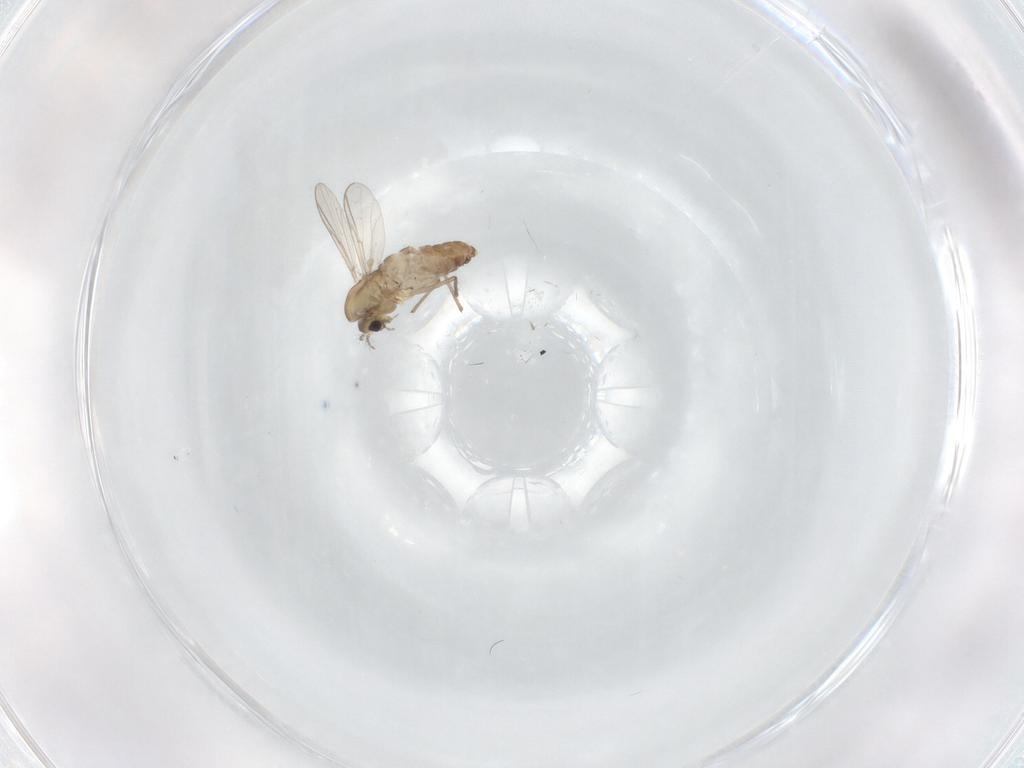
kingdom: Animalia
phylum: Arthropoda
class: Insecta
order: Diptera
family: Chironomidae
